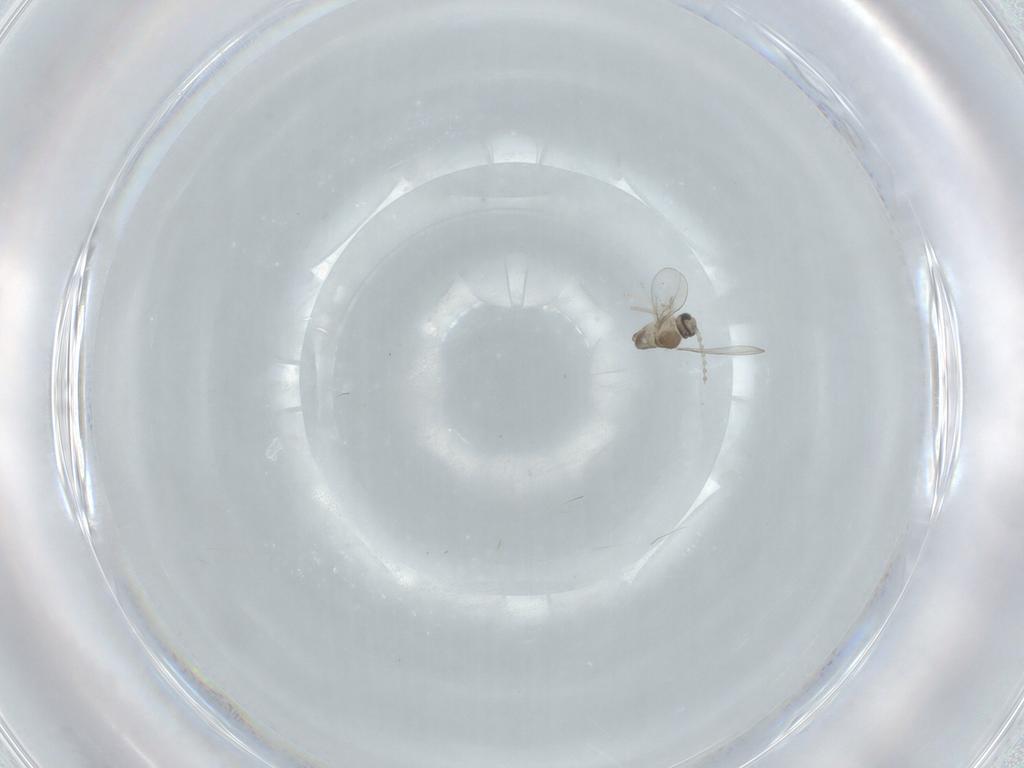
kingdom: Animalia
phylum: Arthropoda
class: Insecta
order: Diptera
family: Cecidomyiidae
